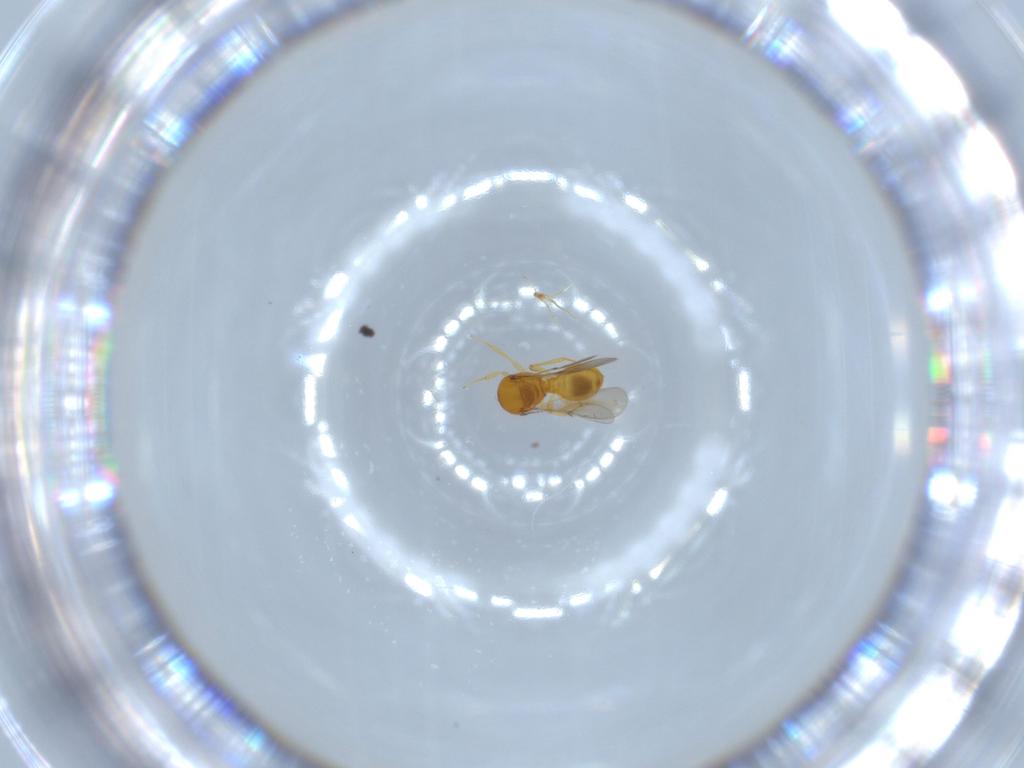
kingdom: Animalia
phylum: Arthropoda
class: Insecta
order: Hymenoptera
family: Scelionidae
